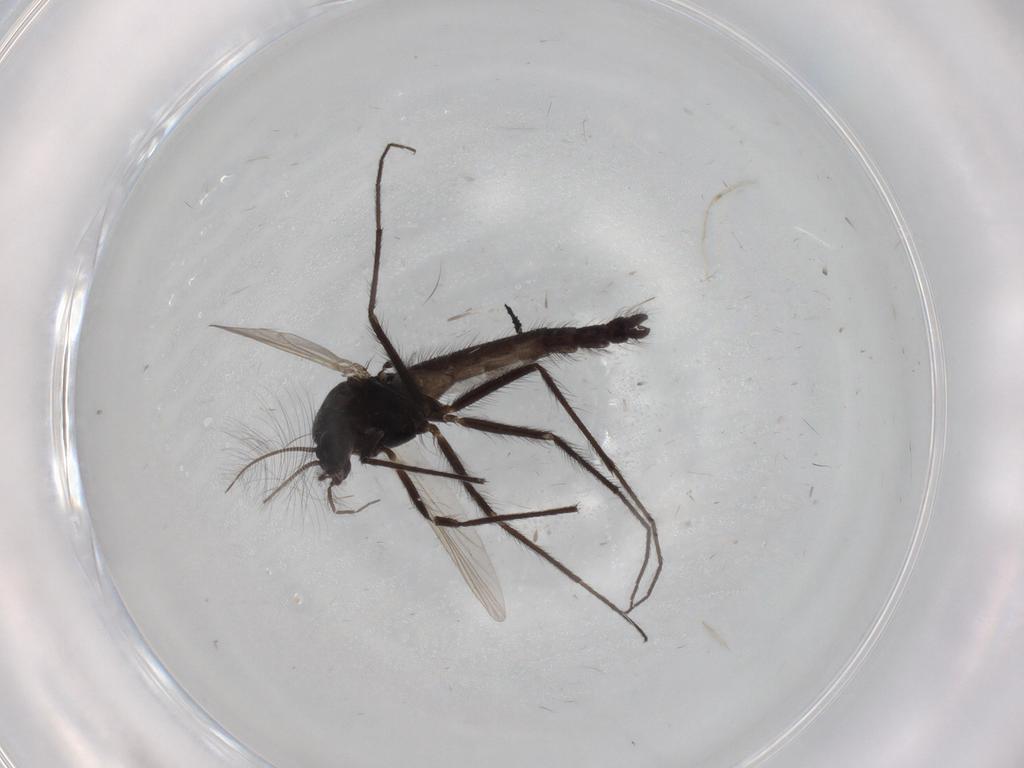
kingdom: Animalia
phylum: Arthropoda
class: Insecta
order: Diptera
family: Chironomidae
